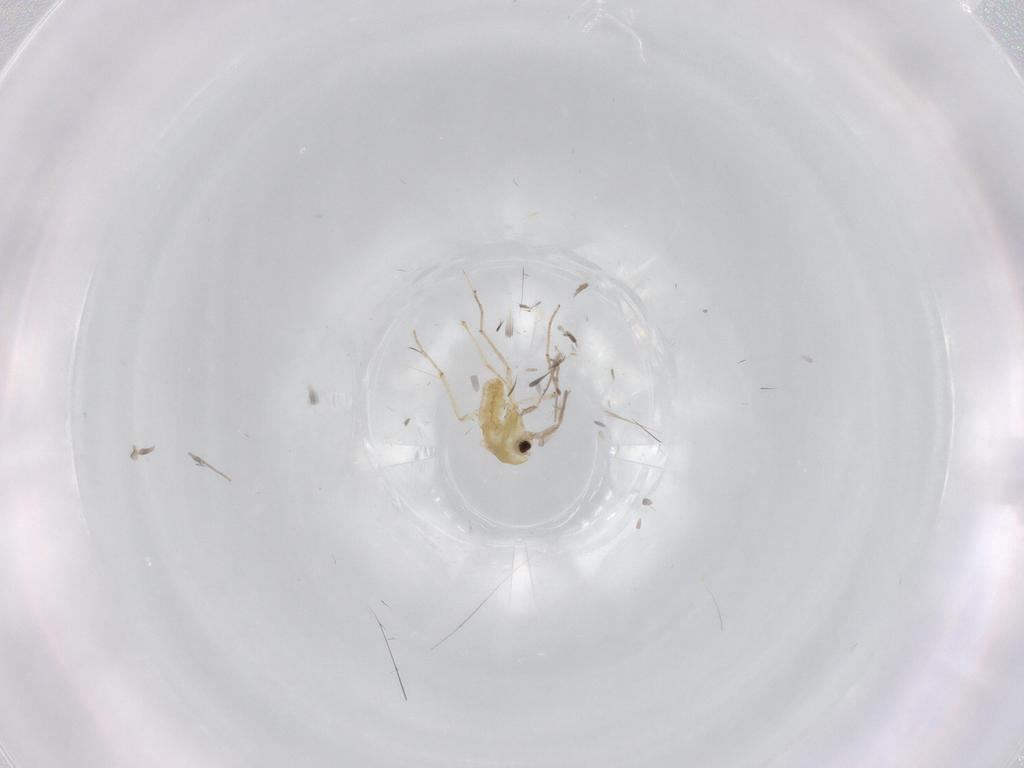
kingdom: Animalia
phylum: Arthropoda
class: Insecta
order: Diptera
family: Chironomidae
